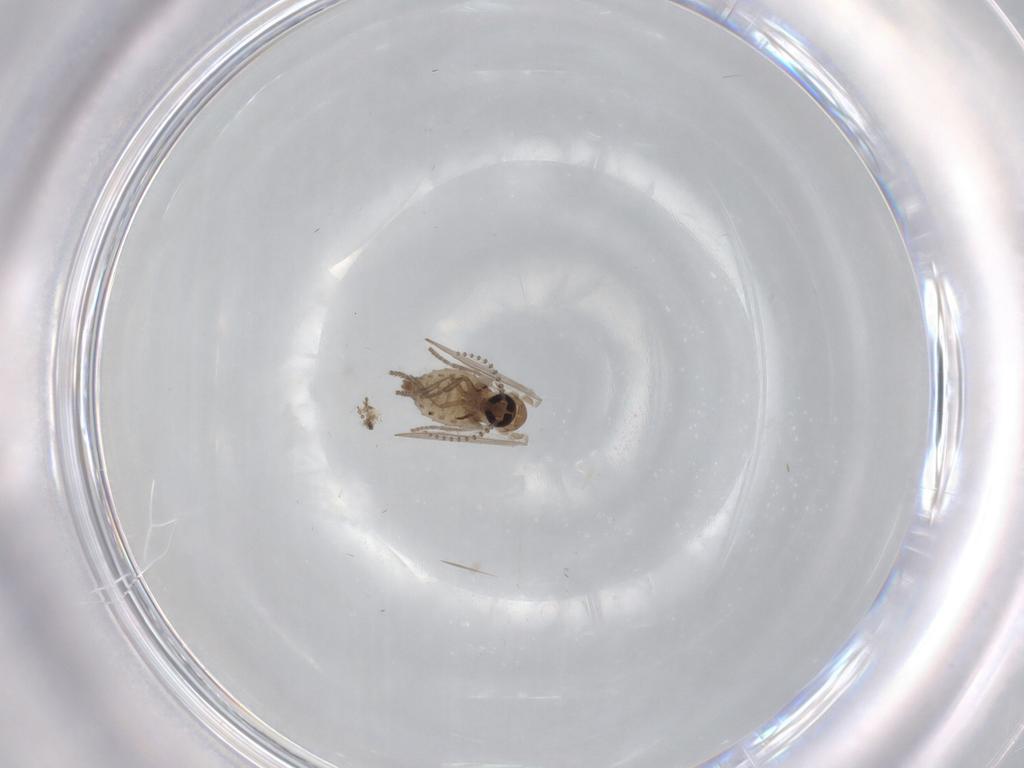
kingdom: Animalia
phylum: Arthropoda
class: Insecta
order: Diptera
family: Psychodidae
